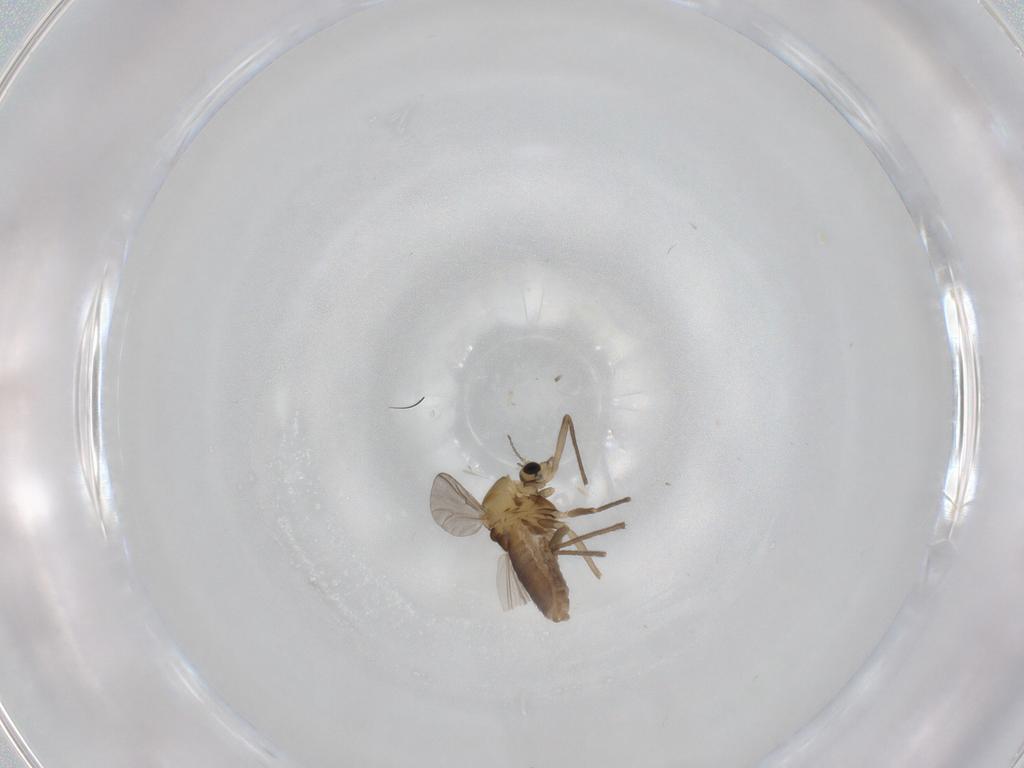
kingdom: Animalia
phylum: Arthropoda
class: Insecta
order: Diptera
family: Chironomidae
